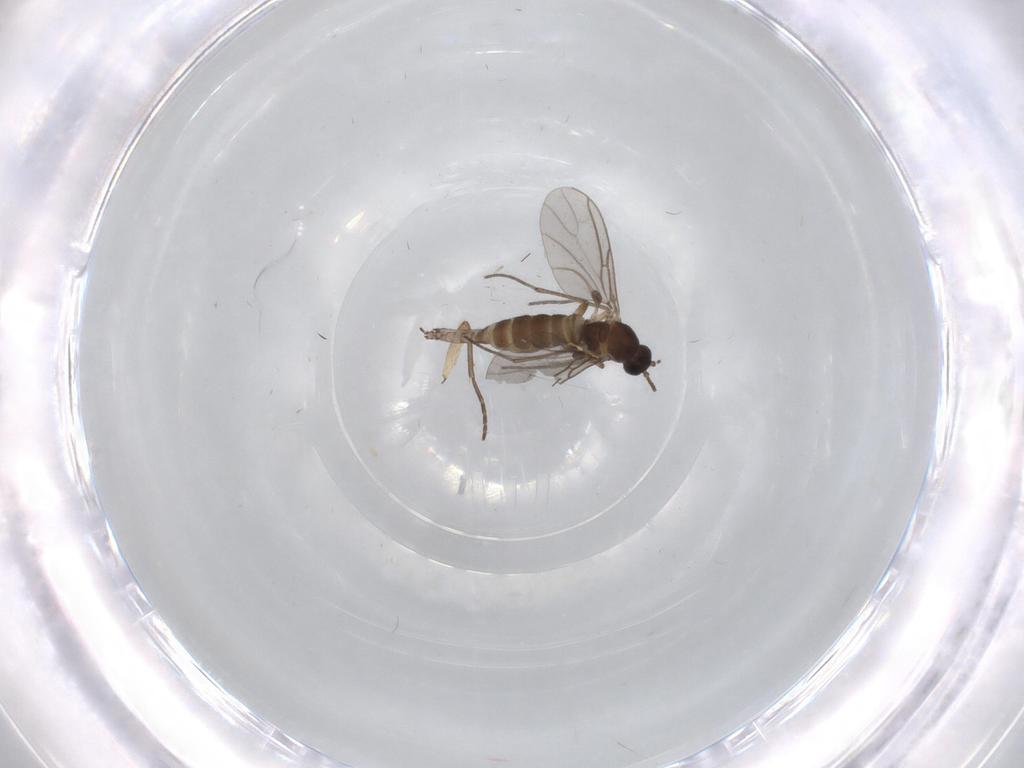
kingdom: Animalia
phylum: Arthropoda
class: Insecta
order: Diptera
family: Sciaridae
